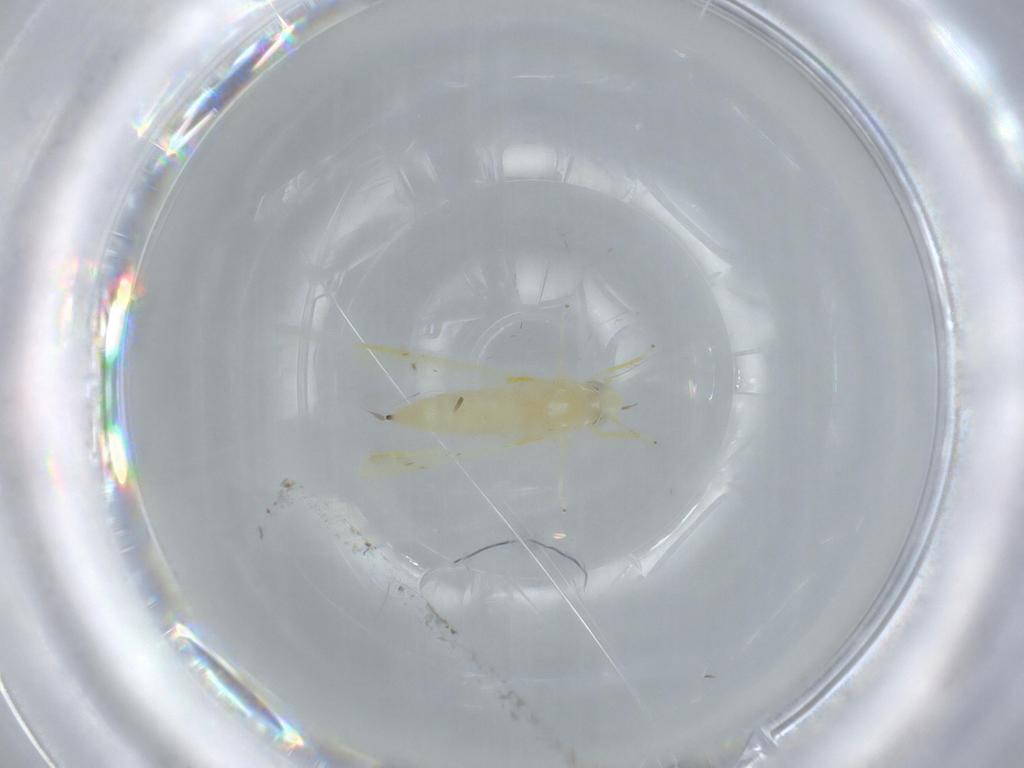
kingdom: Animalia
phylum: Arthropoda
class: Insecta
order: Hemiptera
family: Cicadellidae
